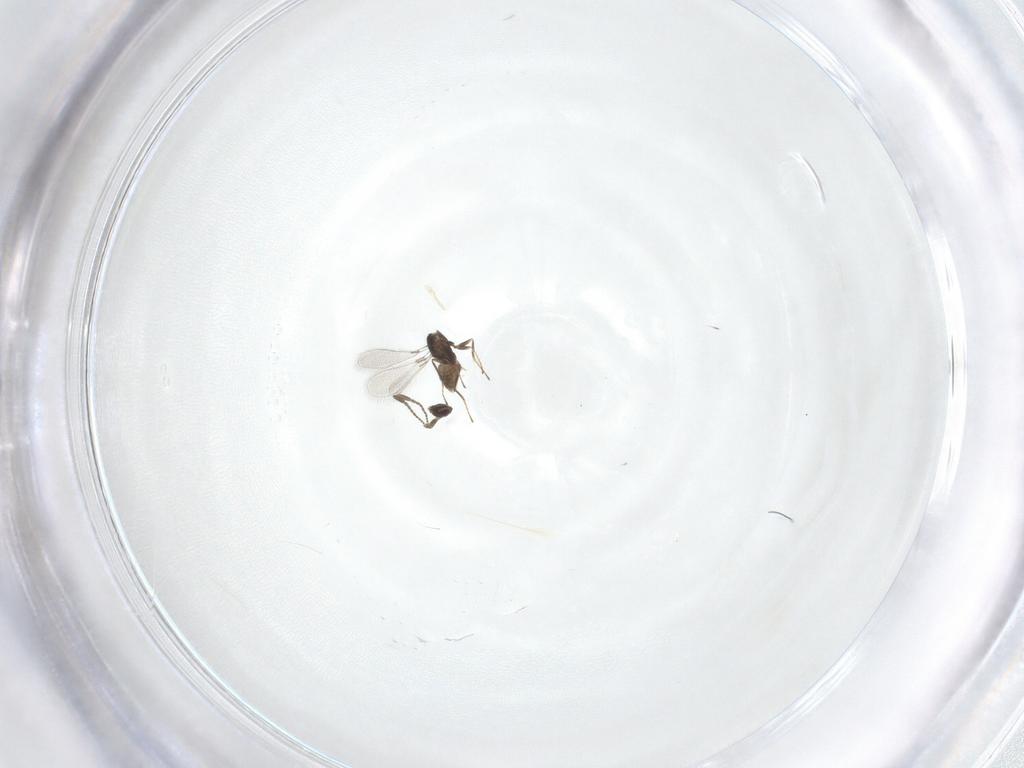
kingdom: Animalia
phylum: Arthropoda
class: Insecta
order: Hymenoptera
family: Mymaridae
